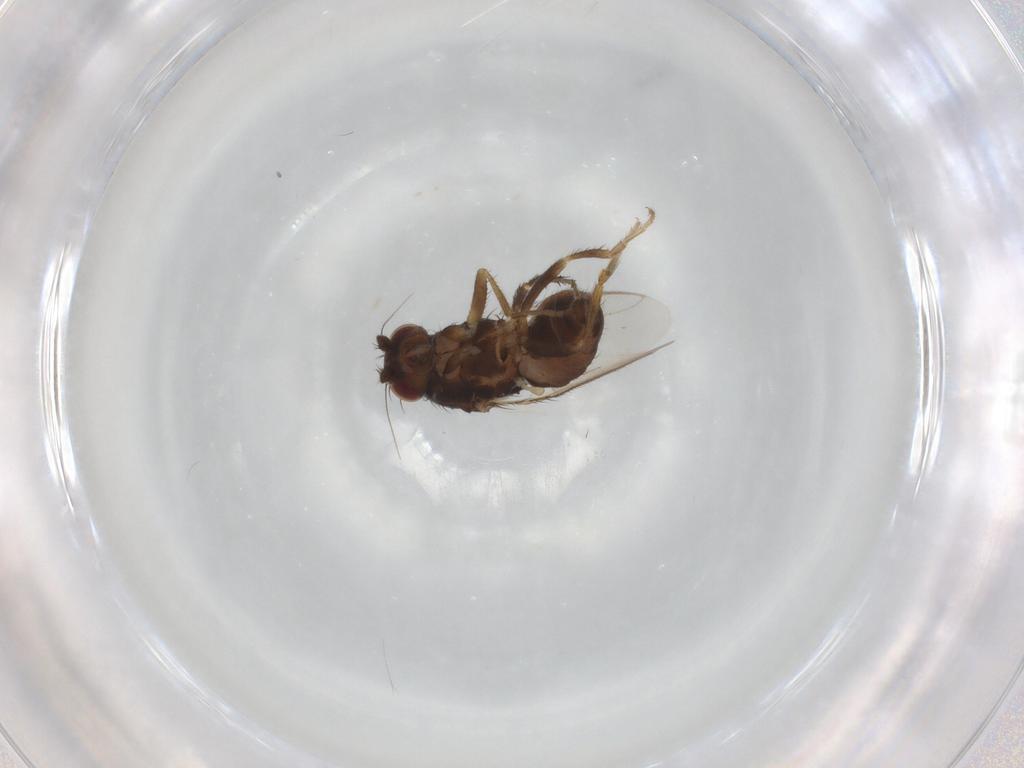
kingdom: Animalia
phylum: Arthropoda
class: Insecta
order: Diptera
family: Sphaeroceridae
